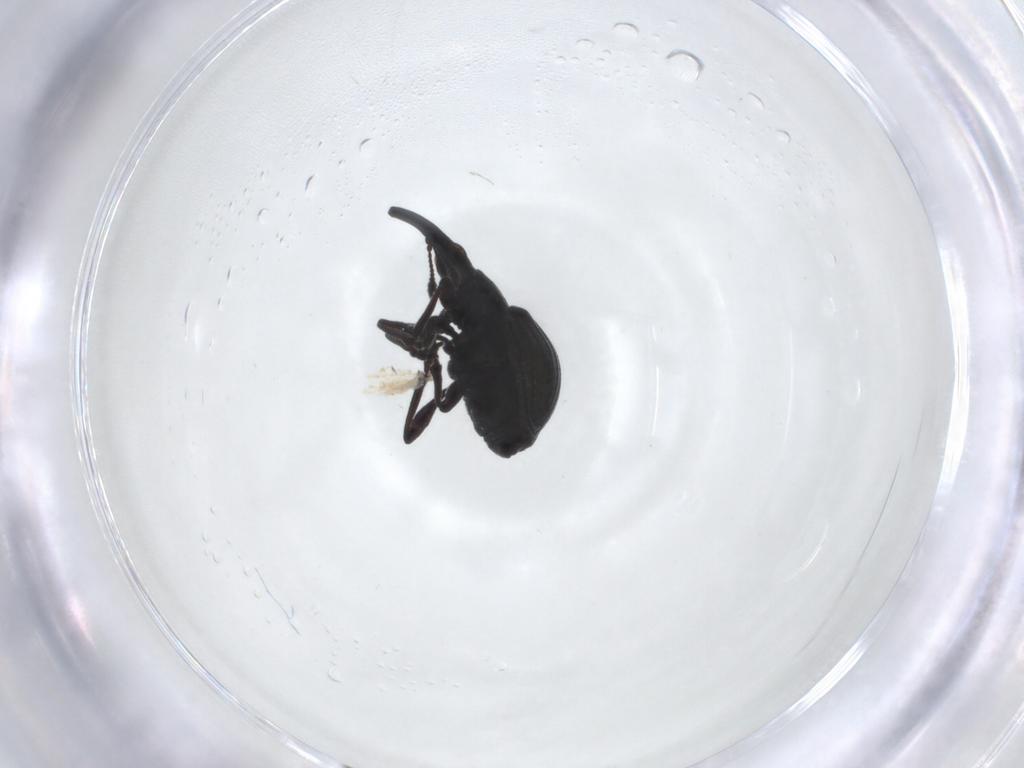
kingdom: Animalia
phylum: Arthropoda
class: Insecta
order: Coleoptera
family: Brentidae
